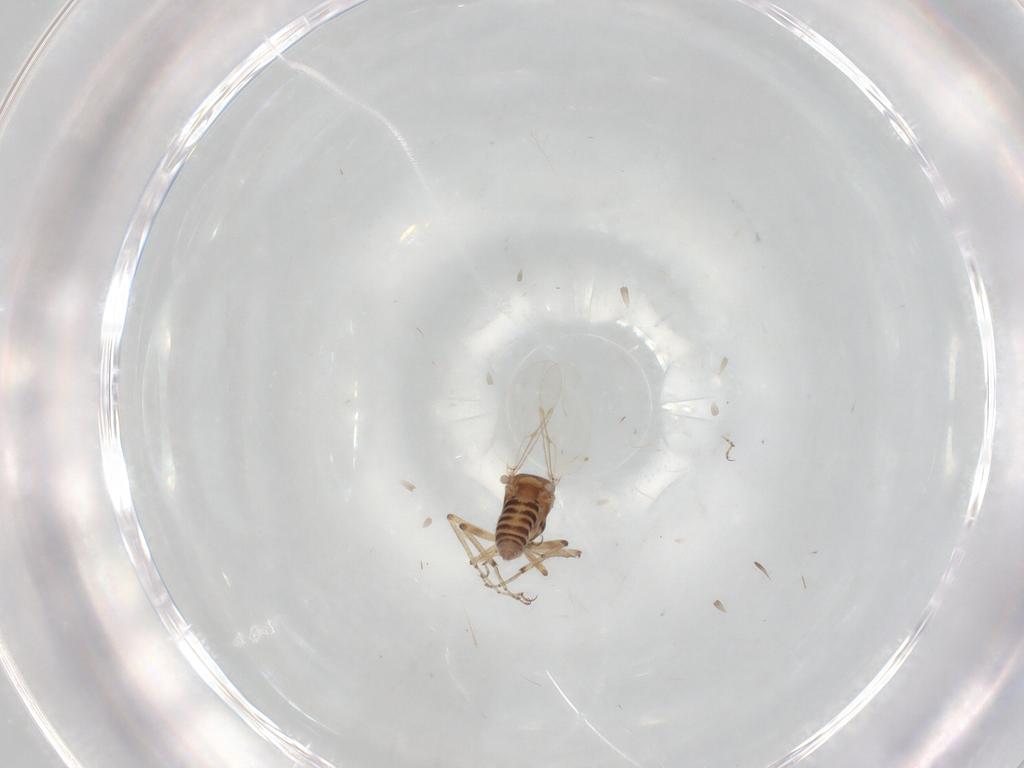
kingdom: Animalia
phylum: Arthropoda
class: Insecta
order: Diptera
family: Ceratopogonidae
